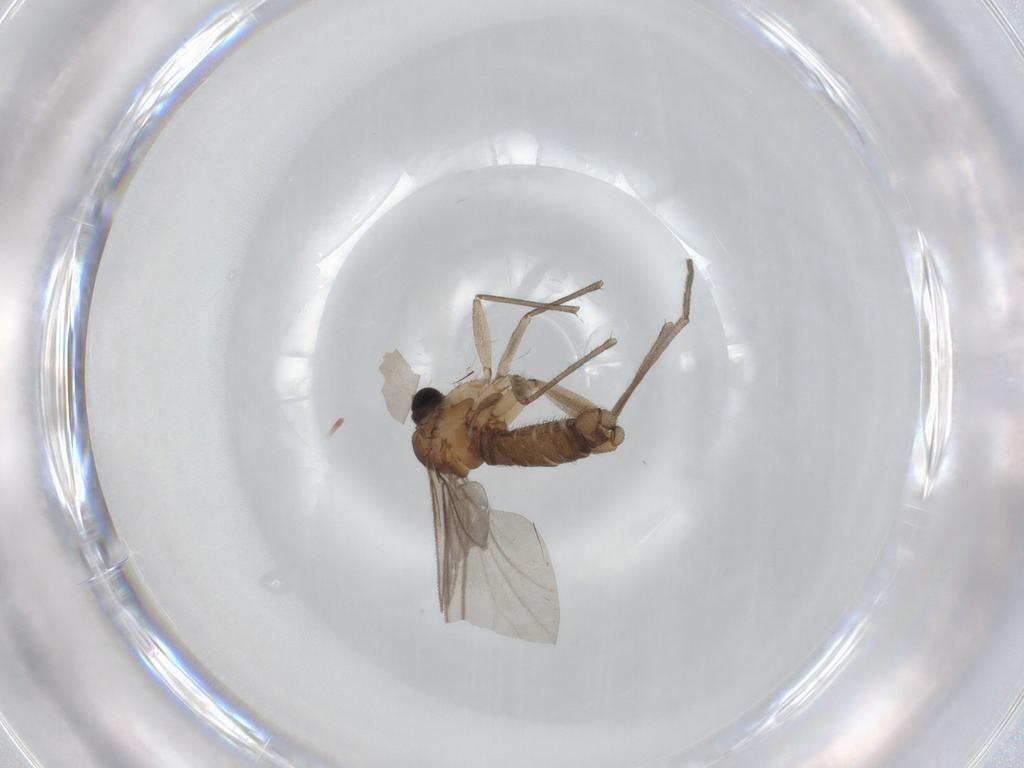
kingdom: Animalia
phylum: Arthropoda
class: Insecta
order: Diptera
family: Sciaridae
